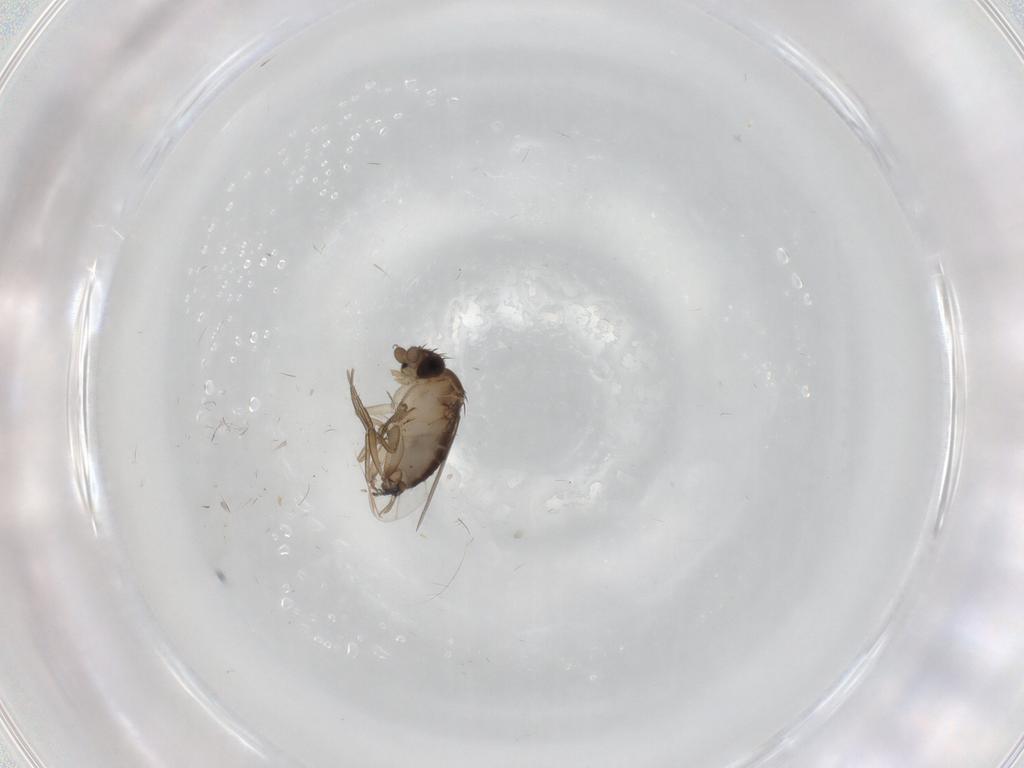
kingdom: Animalia
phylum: Arthropoda
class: Insecta
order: Diptera
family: Phoridae
